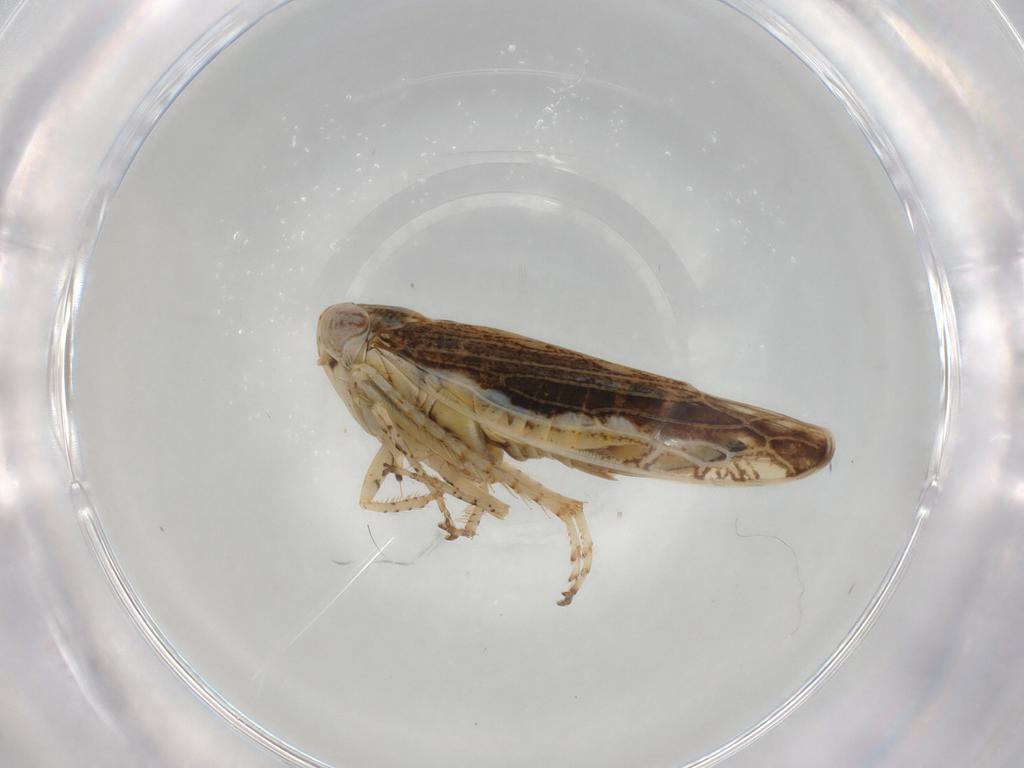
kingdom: Animalia
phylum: Arthropoda
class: Insecta
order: Hemiptera
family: Cicadellidae
